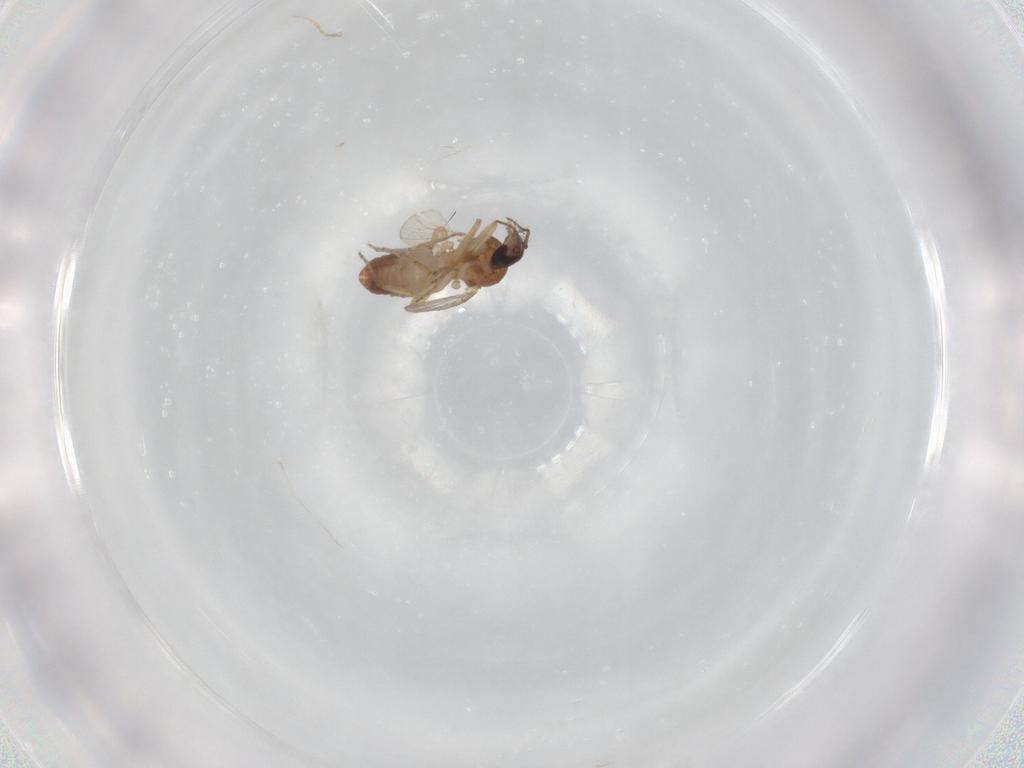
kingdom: Animalia
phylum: Arthropoda
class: Insecta
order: Diptera
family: Ceratopogonidae
